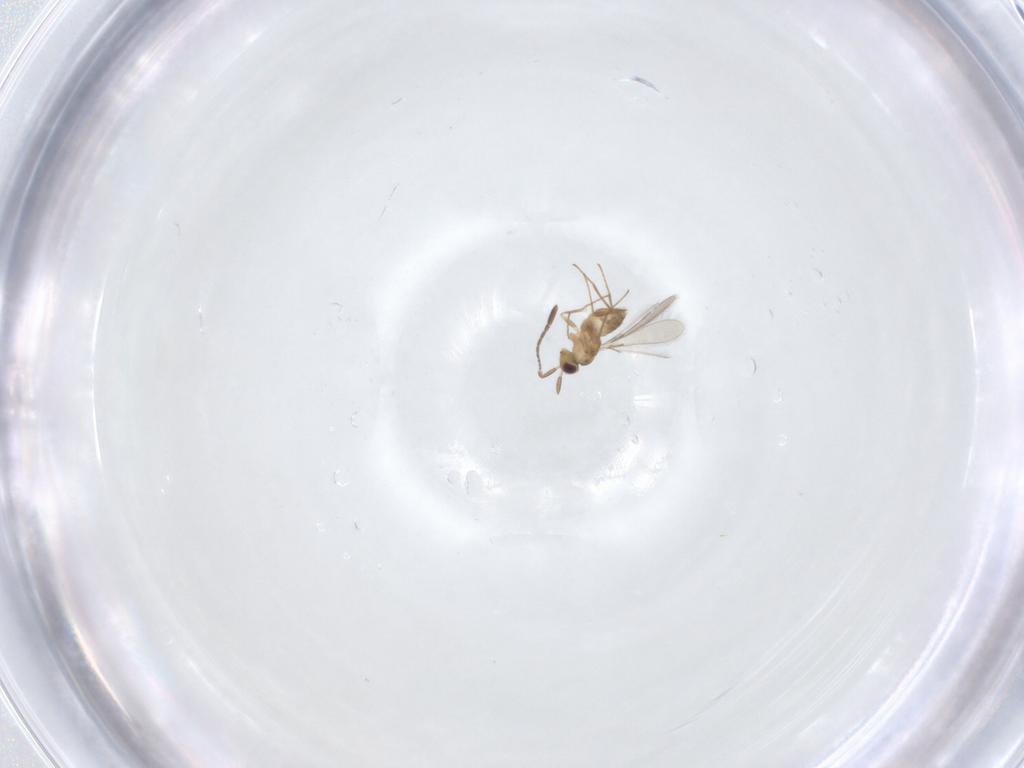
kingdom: Animalia
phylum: Arthropoda
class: Insecta
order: Hymenoptera
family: Mymaridae
